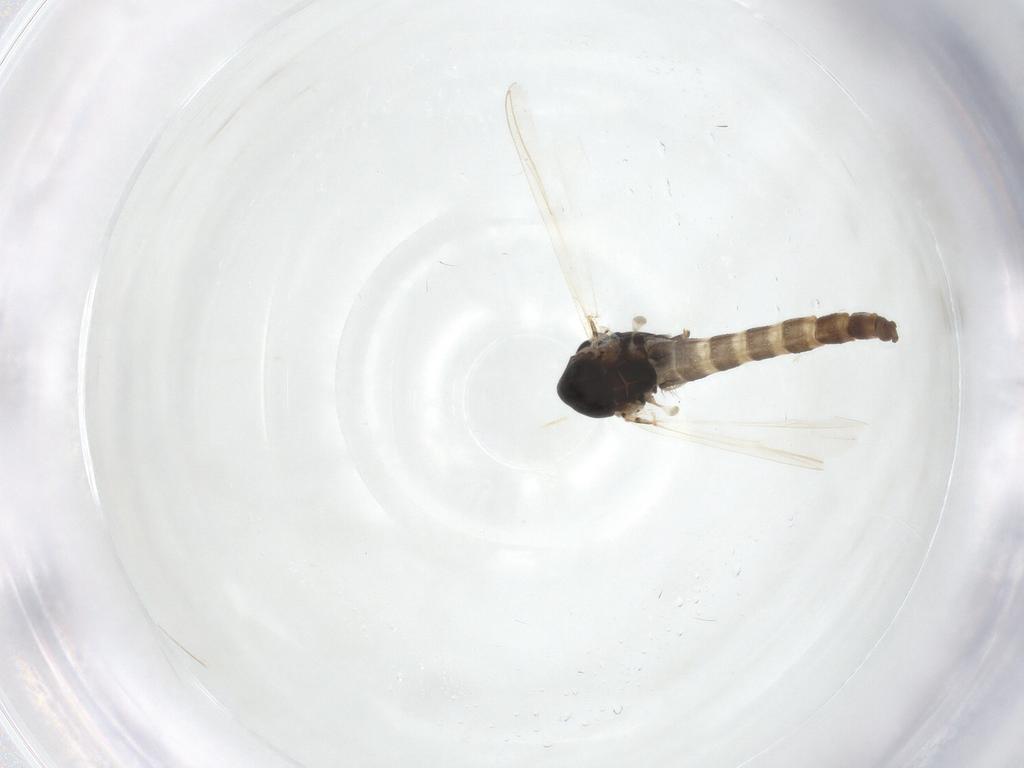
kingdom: Animalia
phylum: Arthropoda
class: Insecta
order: Diptera
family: Chironomidae
